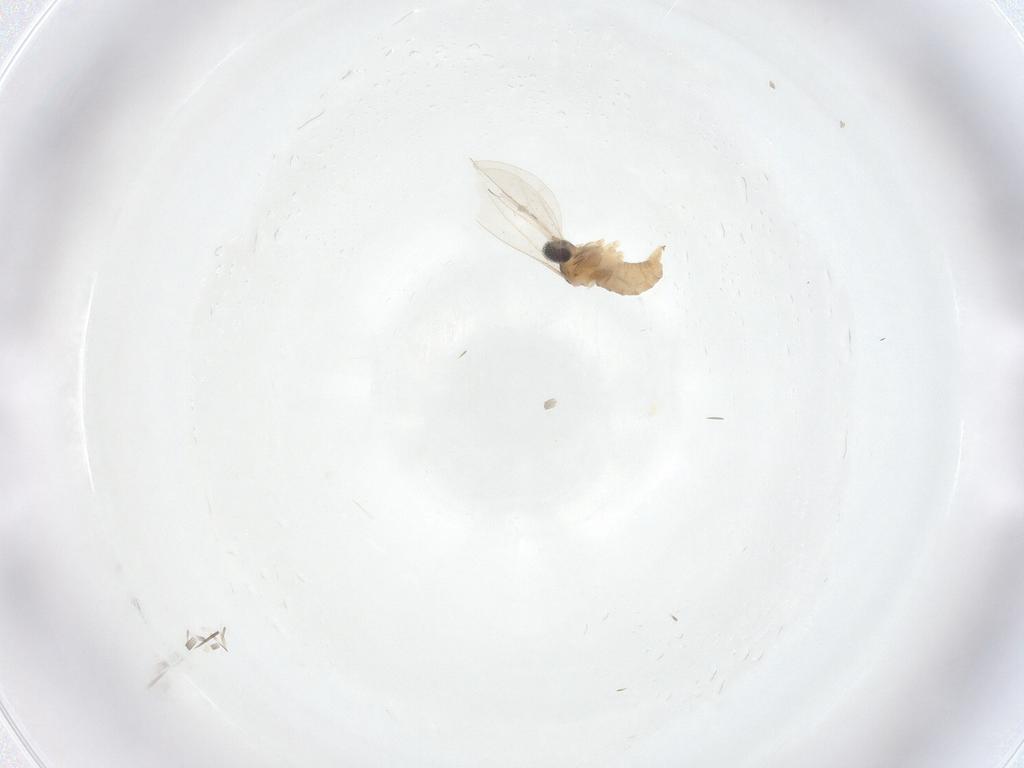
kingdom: Animalia
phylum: Arthropoda
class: Insecta
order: Diptera
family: Cecidomyiidae
